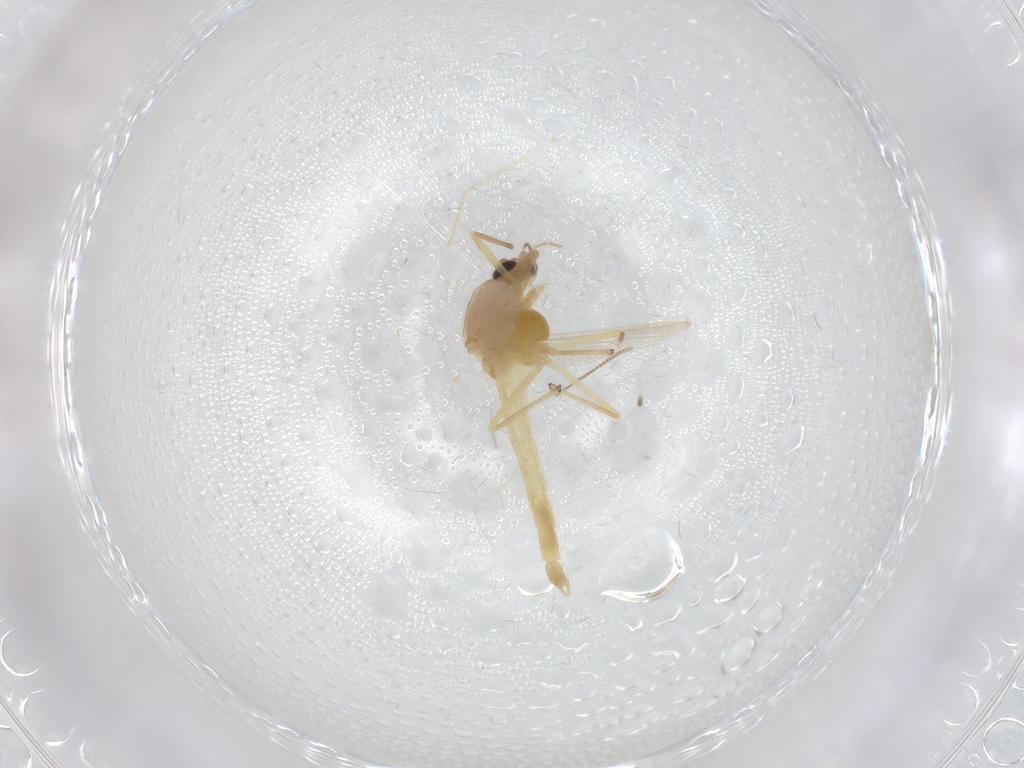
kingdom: Animalia
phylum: Arthropoda
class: Insecta
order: Diptera
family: Chironomidae
